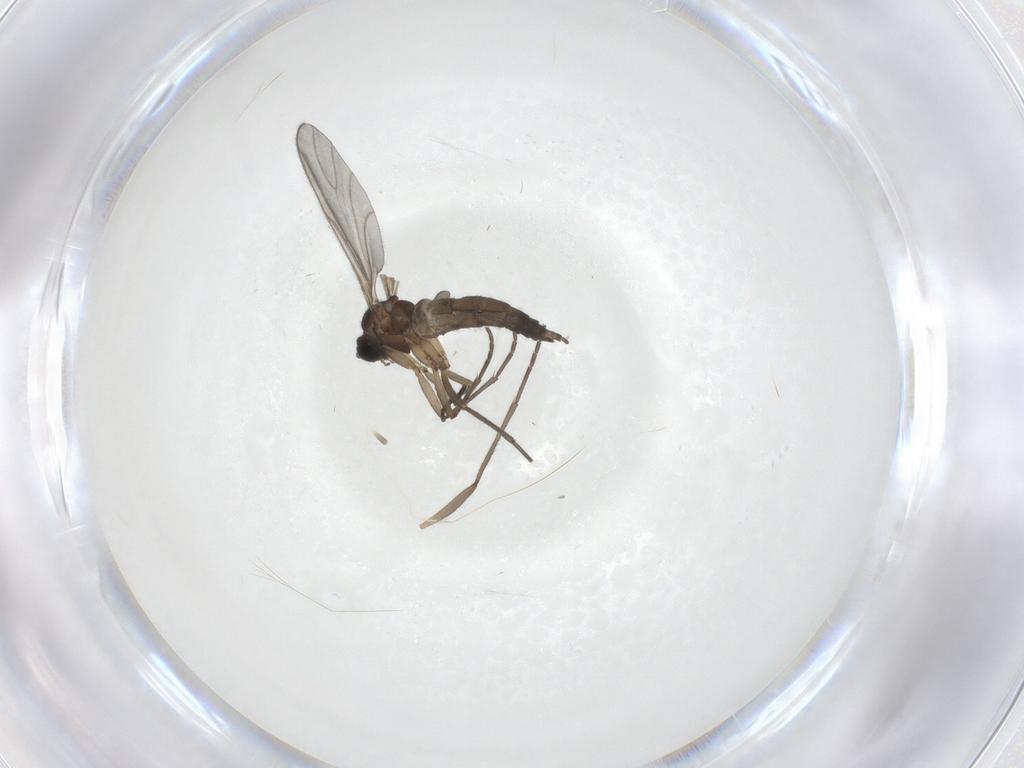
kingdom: Animalia
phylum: Arthropoda
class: Insecta
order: Diptera
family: Sciaridae
